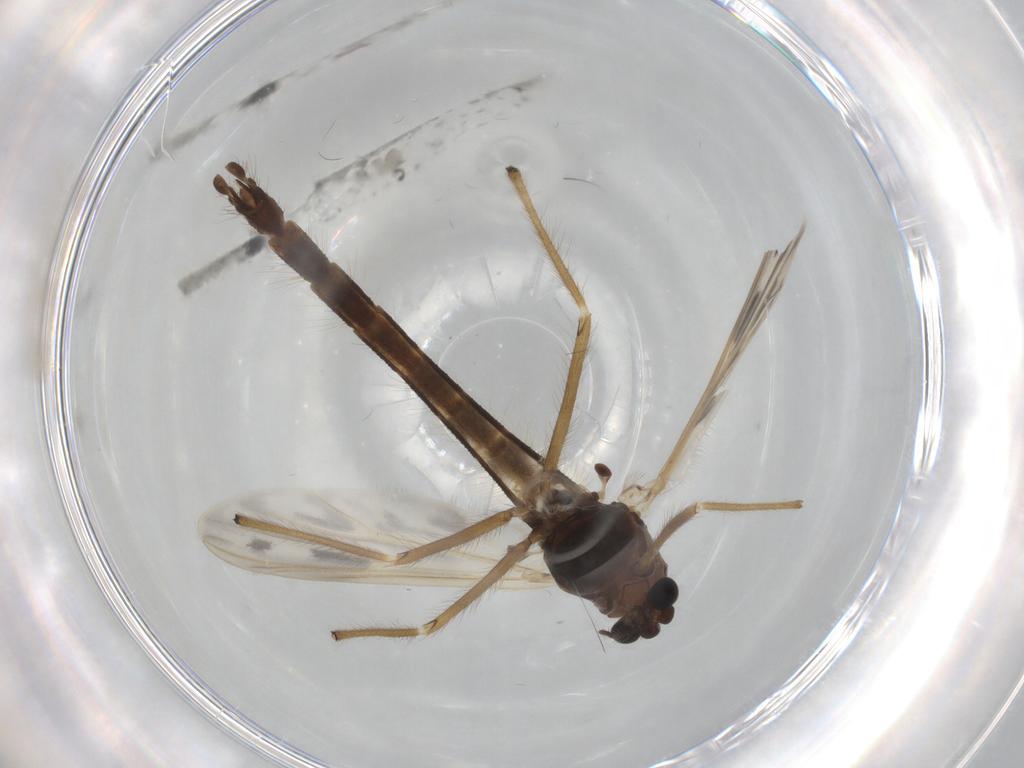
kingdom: Animalia
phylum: Arthropoda
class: Insecta
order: Diptera
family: Chironomidae
